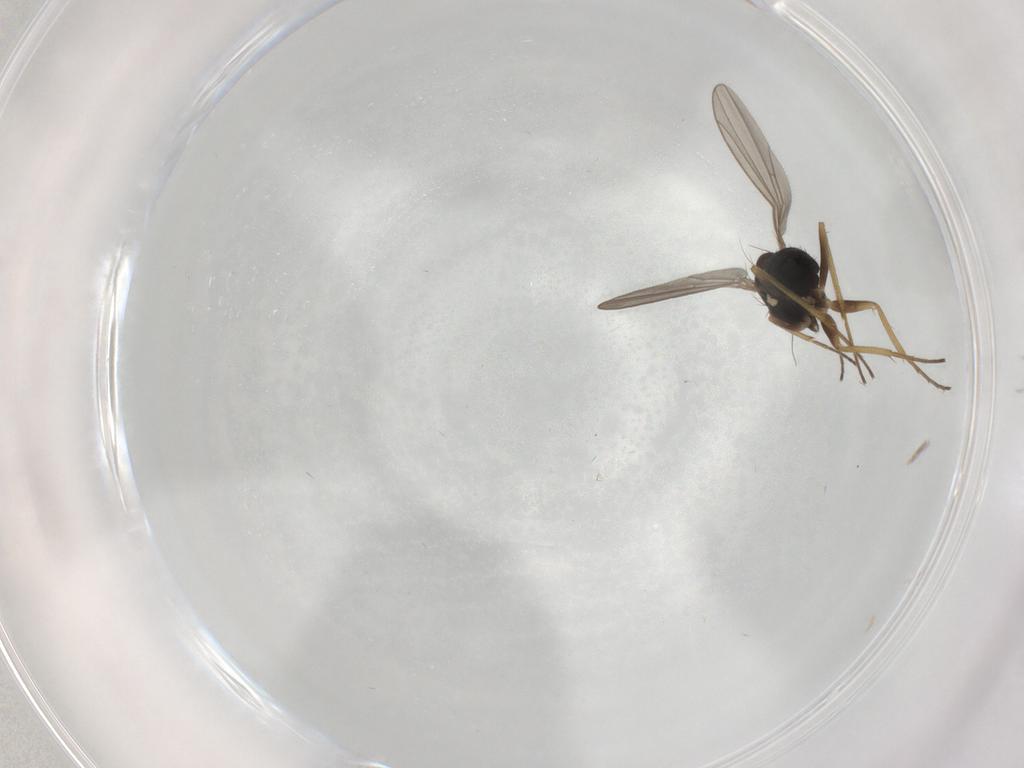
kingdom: Animalia
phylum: Arthropoda
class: Insecta
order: Diptera
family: Dolichopodidae
